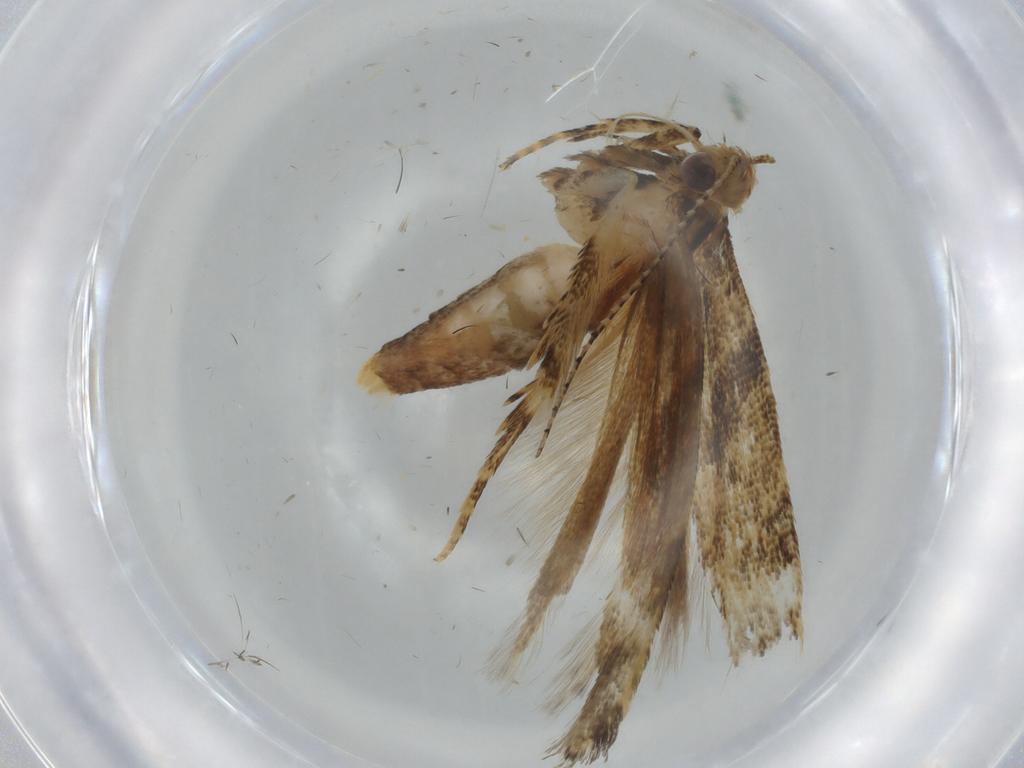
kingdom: Animalia
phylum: Arthropoda
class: Insecta
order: Lepidoptera
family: Gelechiidae
